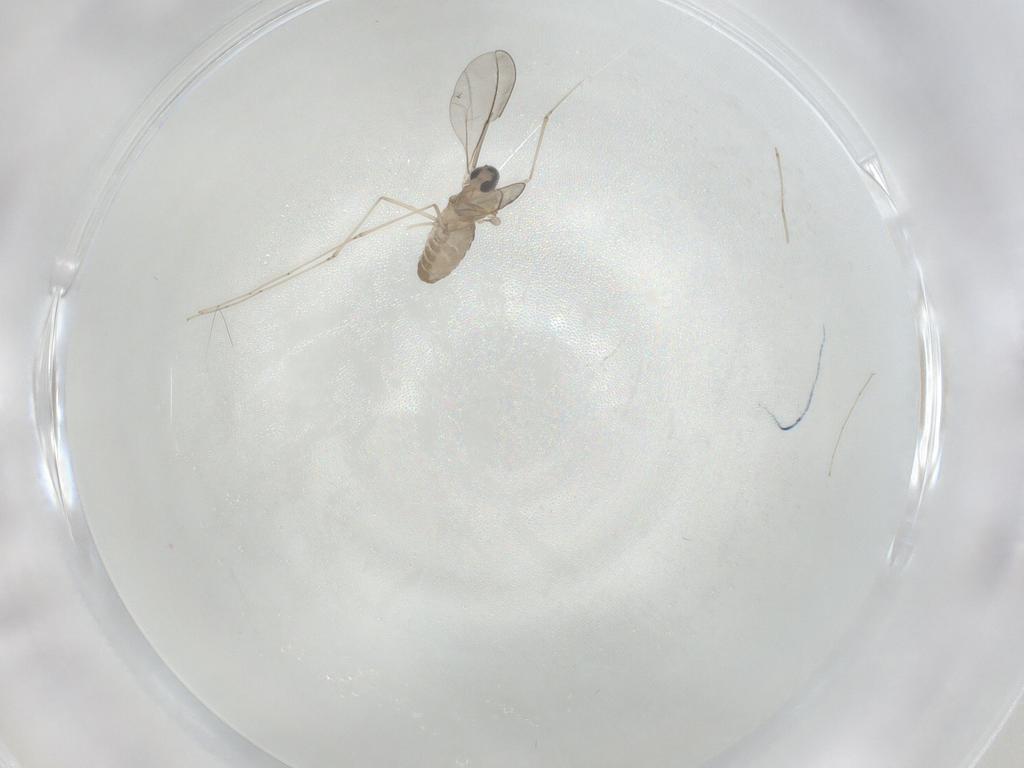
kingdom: Animalia
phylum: Arthropoda
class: Insecta
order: Diptera
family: Cecidomyiidae
